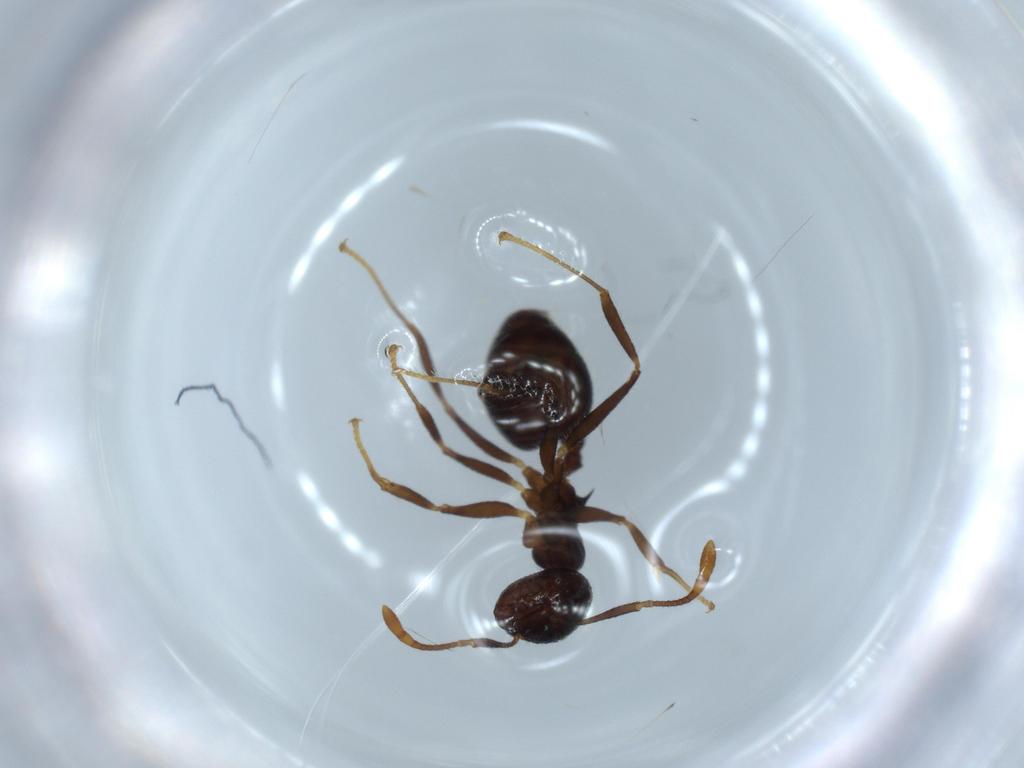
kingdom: Animalia
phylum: Arthropoda
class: Insecta
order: Hymenoptera
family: Formicidae
